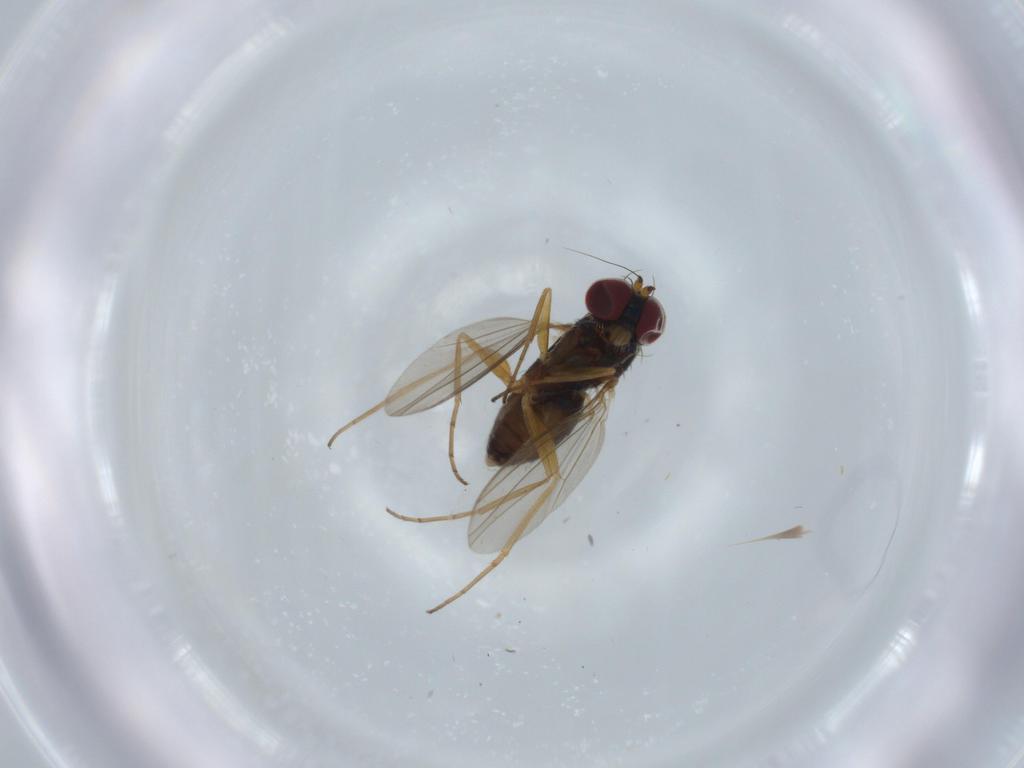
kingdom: Animalia
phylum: Arthropoda
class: Insecta
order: Diptera
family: Dolichopodidae
